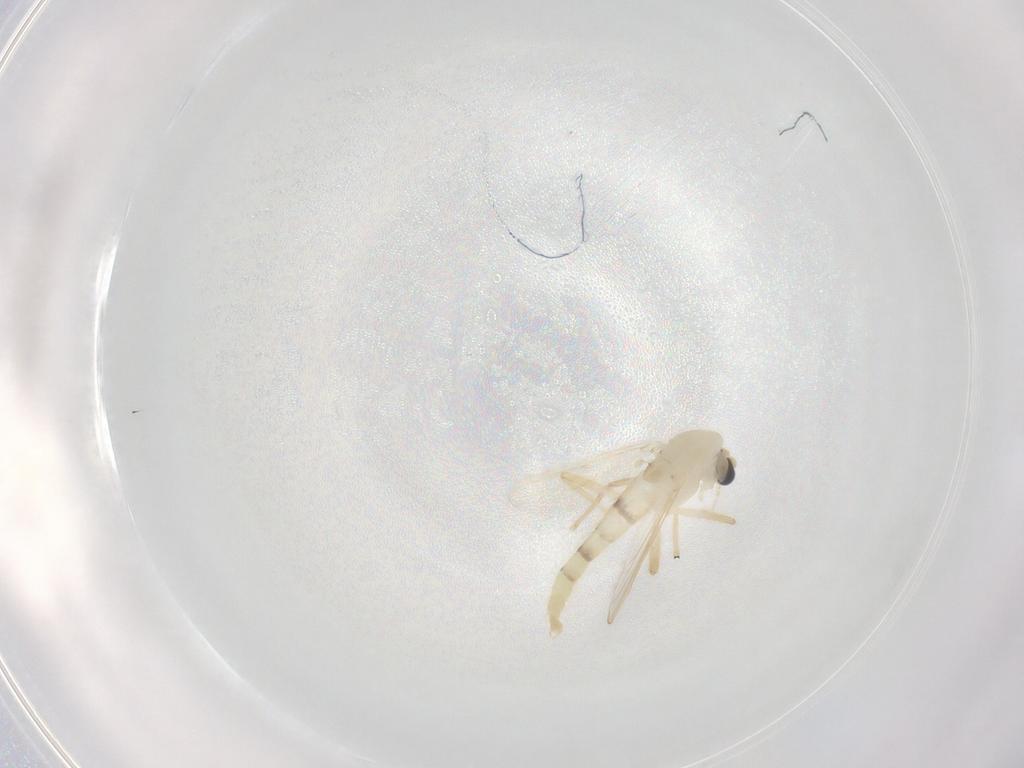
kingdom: Animalia
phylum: Arthropoda
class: Insecta
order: Diptera
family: Chironomidae
